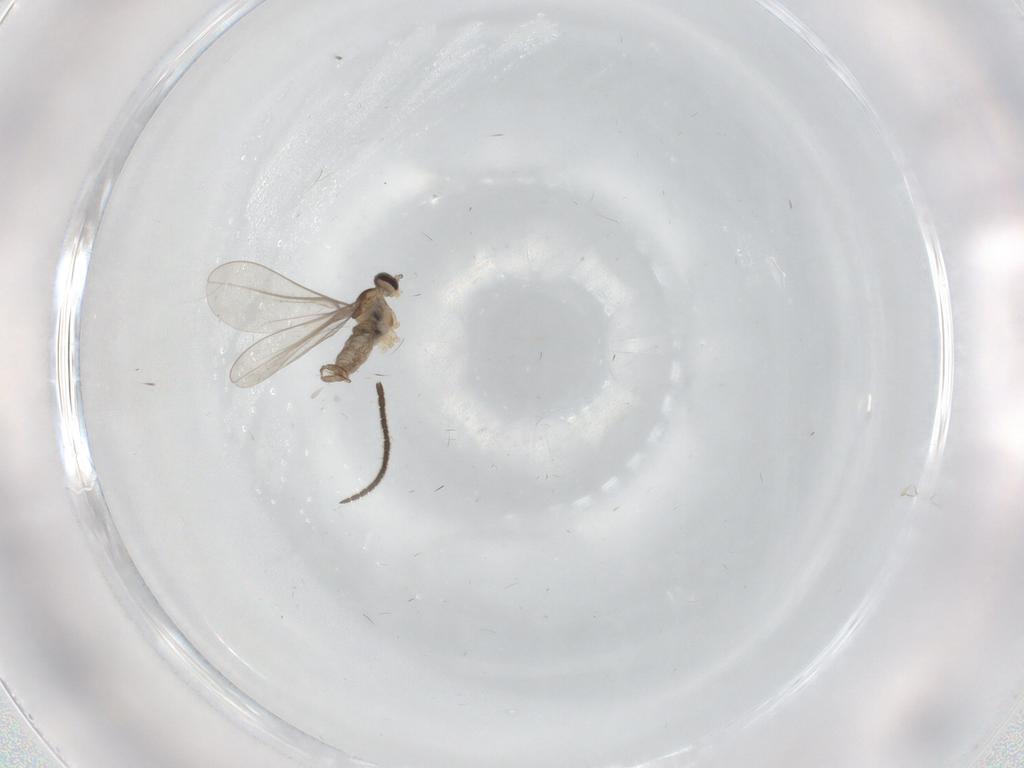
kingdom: Animalia
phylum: Arthropoda
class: Insecta
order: Diptera
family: Cecidomyiidae
